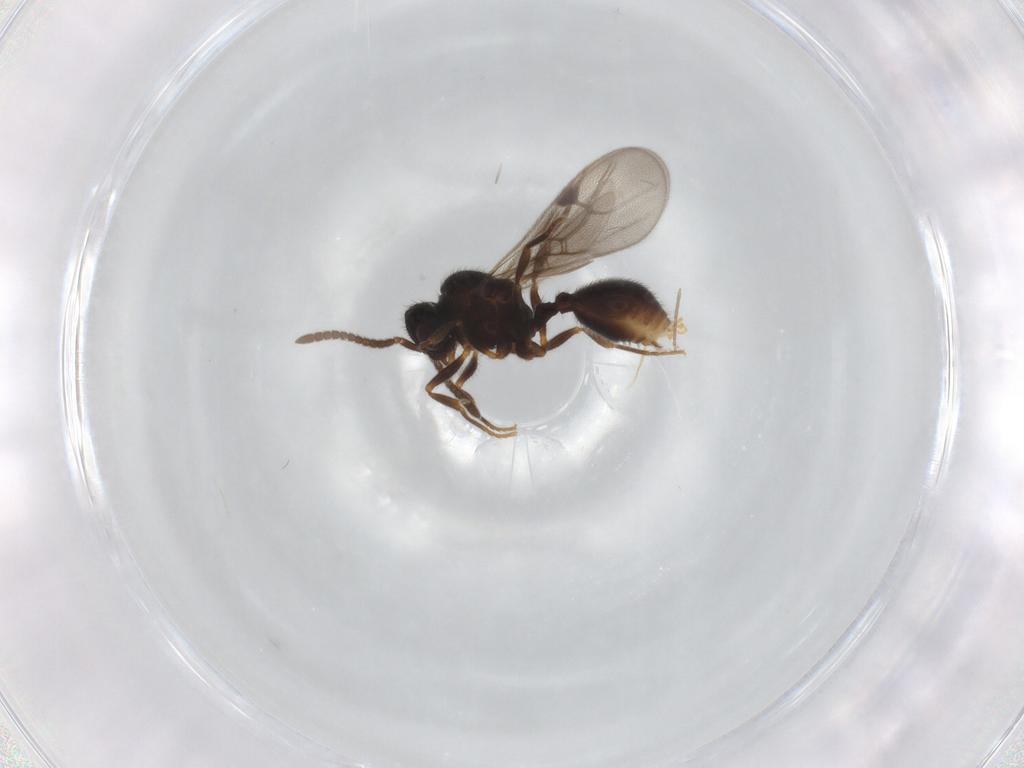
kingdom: Animalia
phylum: Arthropoda
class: Insecta
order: Hymenoptera
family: Formicidae
